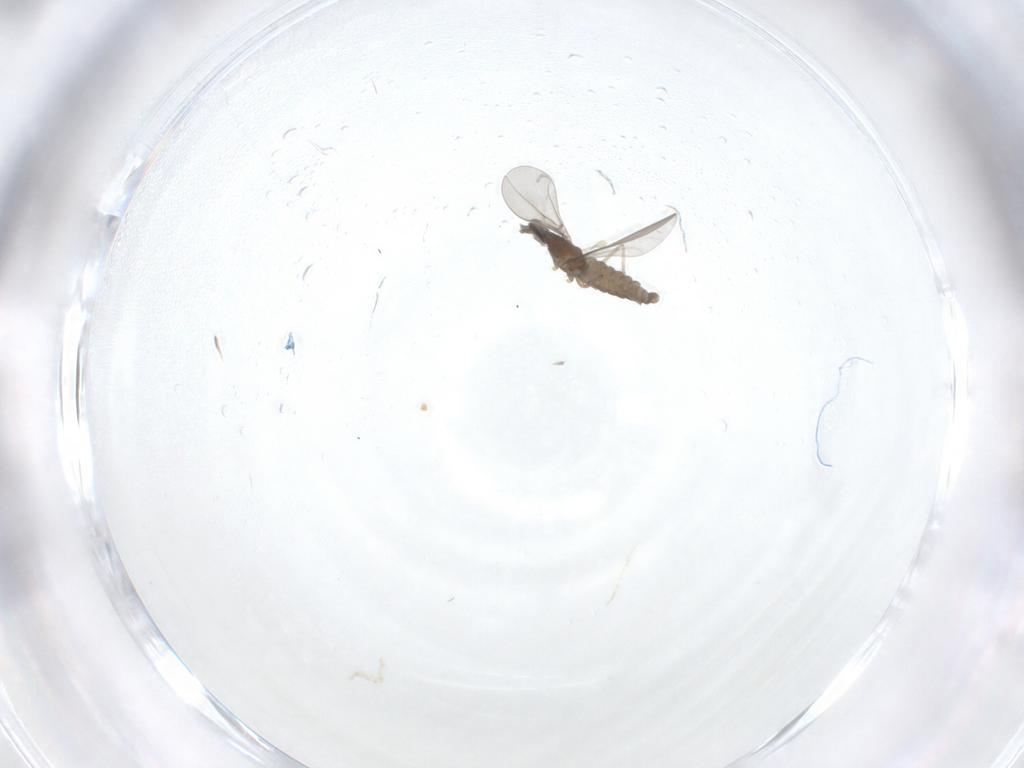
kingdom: Animalia
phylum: Arthropoda
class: Insecta
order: Diptera
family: Cecidomyiidae
